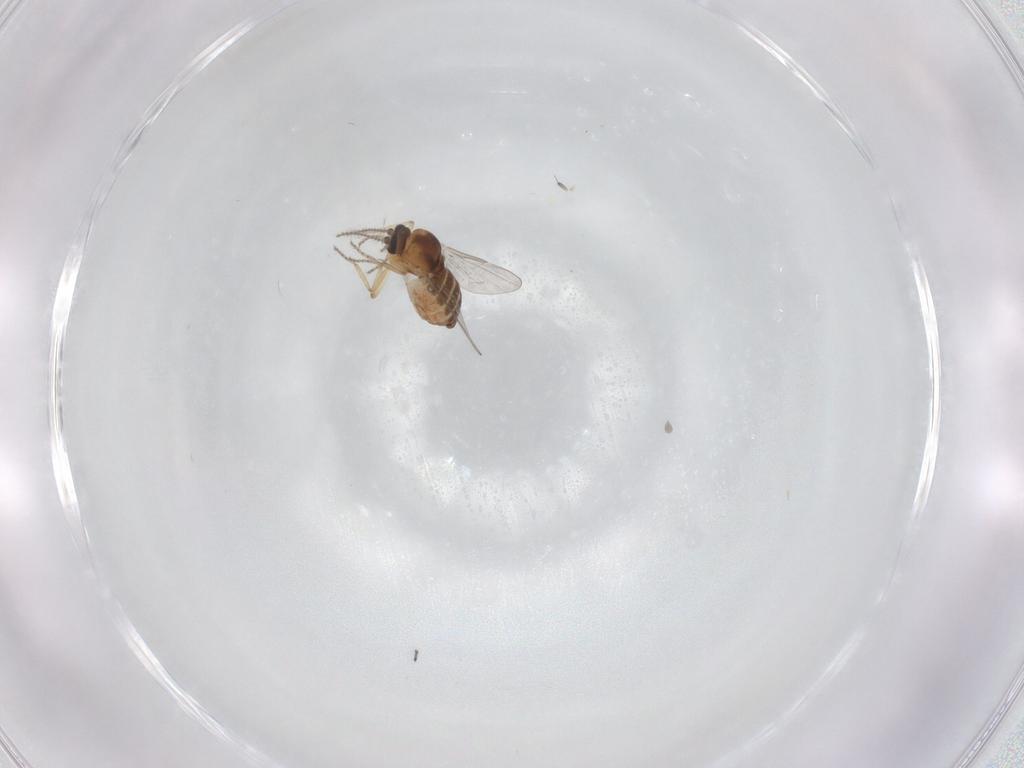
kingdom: Animalia
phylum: Arthropoda
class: Insecta
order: Diptera
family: Ceratopogonidae
